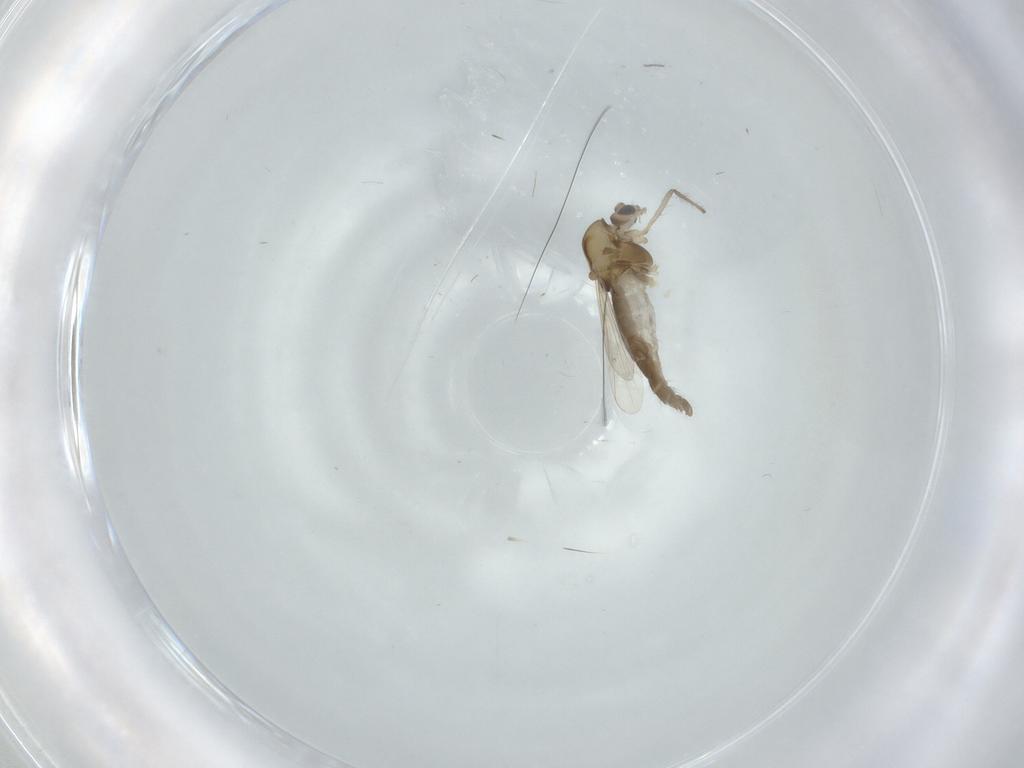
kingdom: Animalia
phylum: Arthropoda
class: Insecta
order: Diptera
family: Chironomidae
